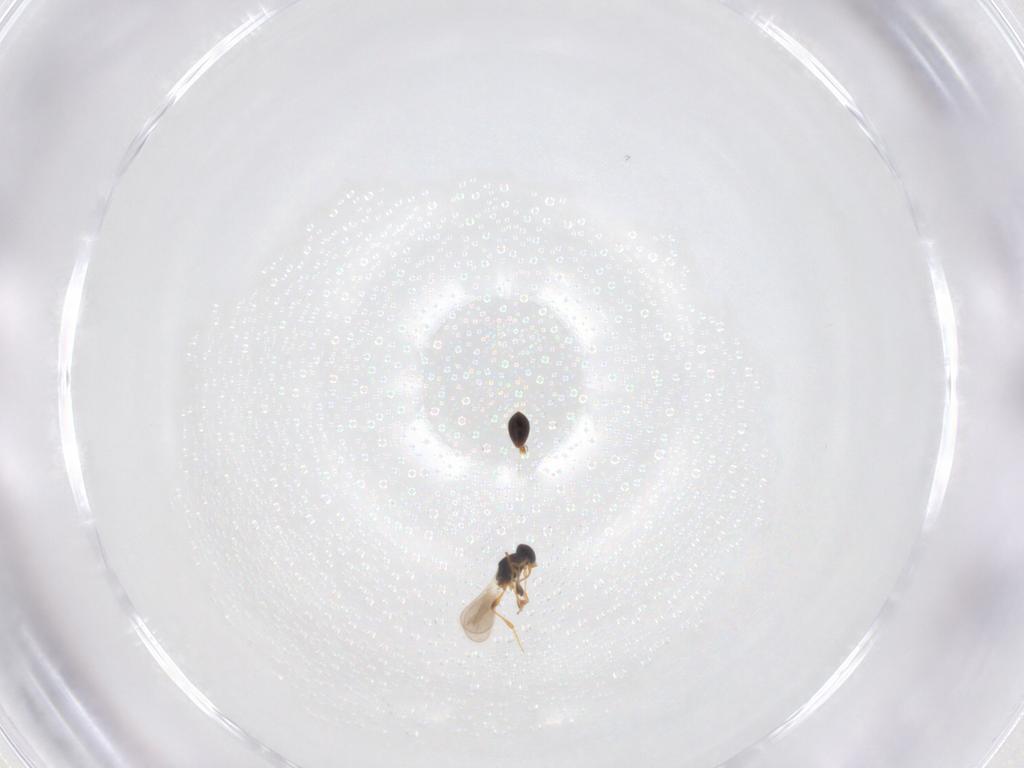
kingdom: Animalia
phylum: Arthropoda
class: Insecta
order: Hymenoptera
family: Platygastridae
